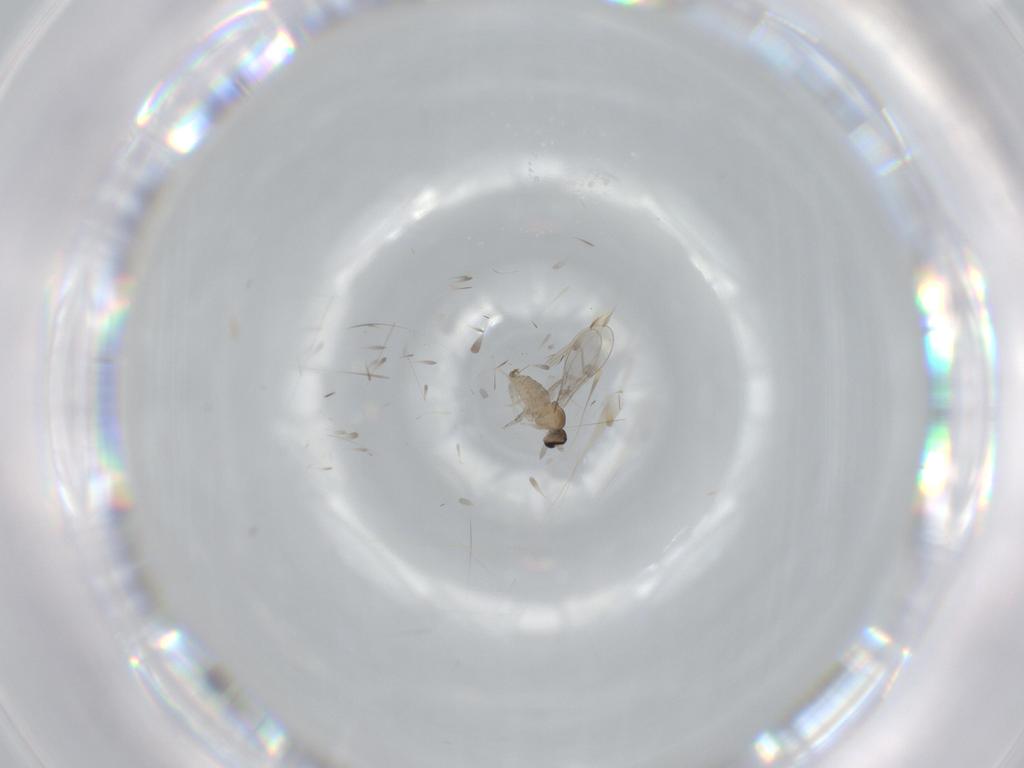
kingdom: Animalia
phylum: Arthropoda
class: Insecta
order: Diptera
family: Cecidomyiidae
